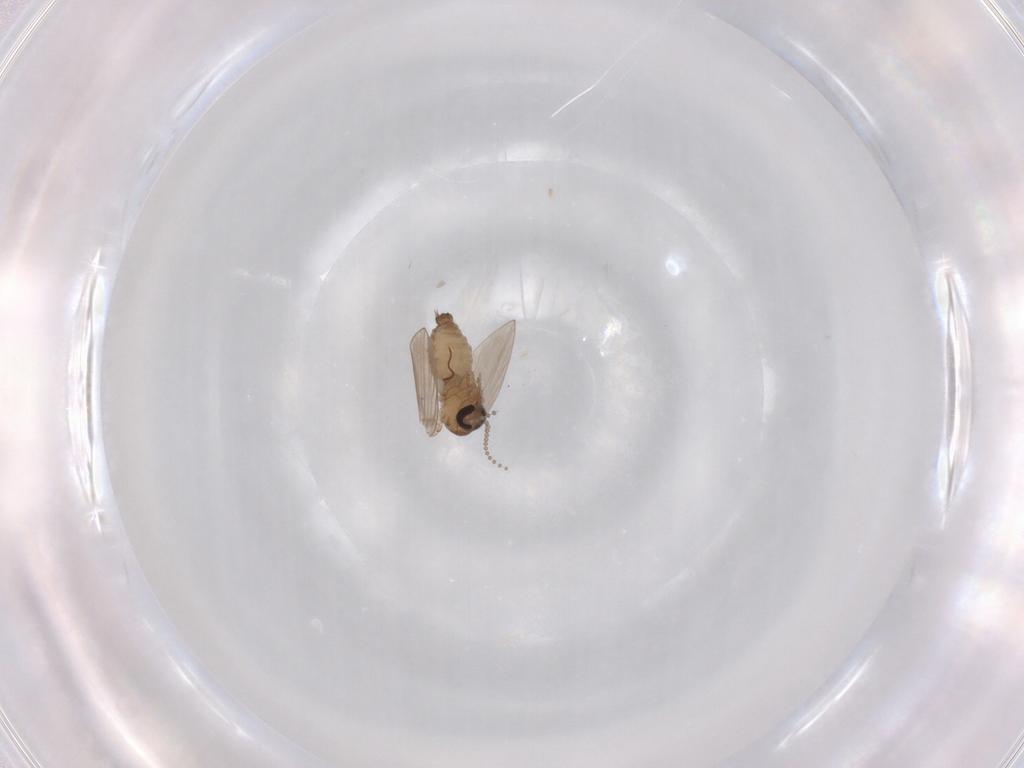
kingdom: Animalia
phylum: Arthropoda
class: Insecta
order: Diptera
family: Psychodidae
